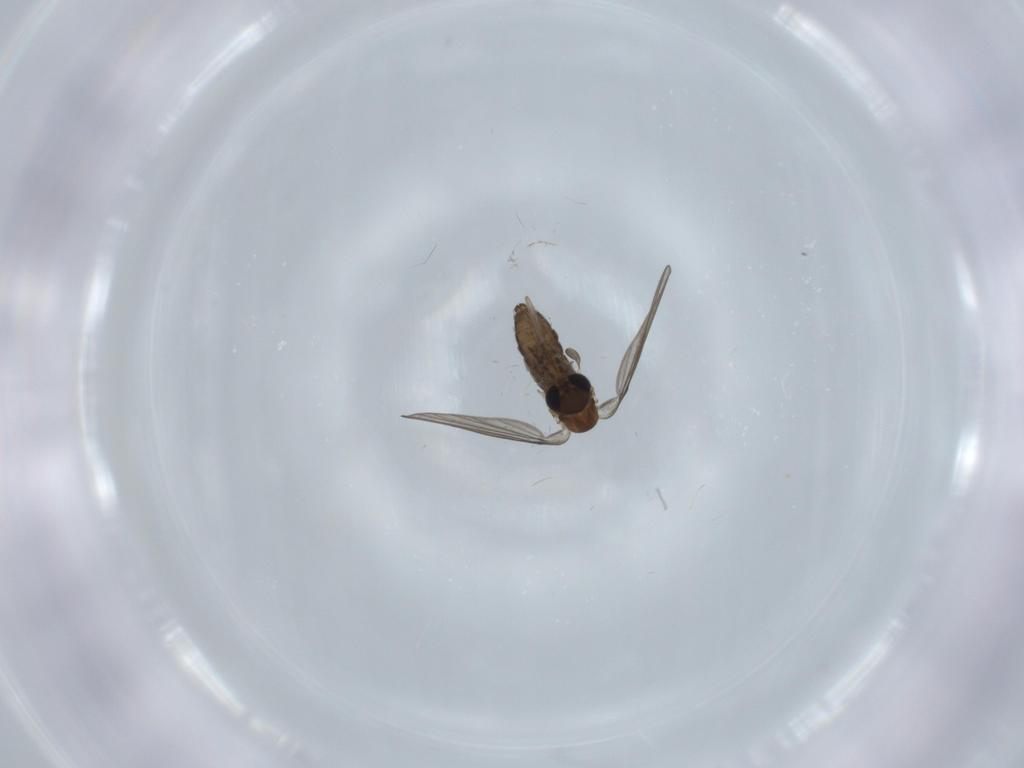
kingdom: Animalia
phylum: Arthropoda
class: Insecta
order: Diptera
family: Psychodidae
